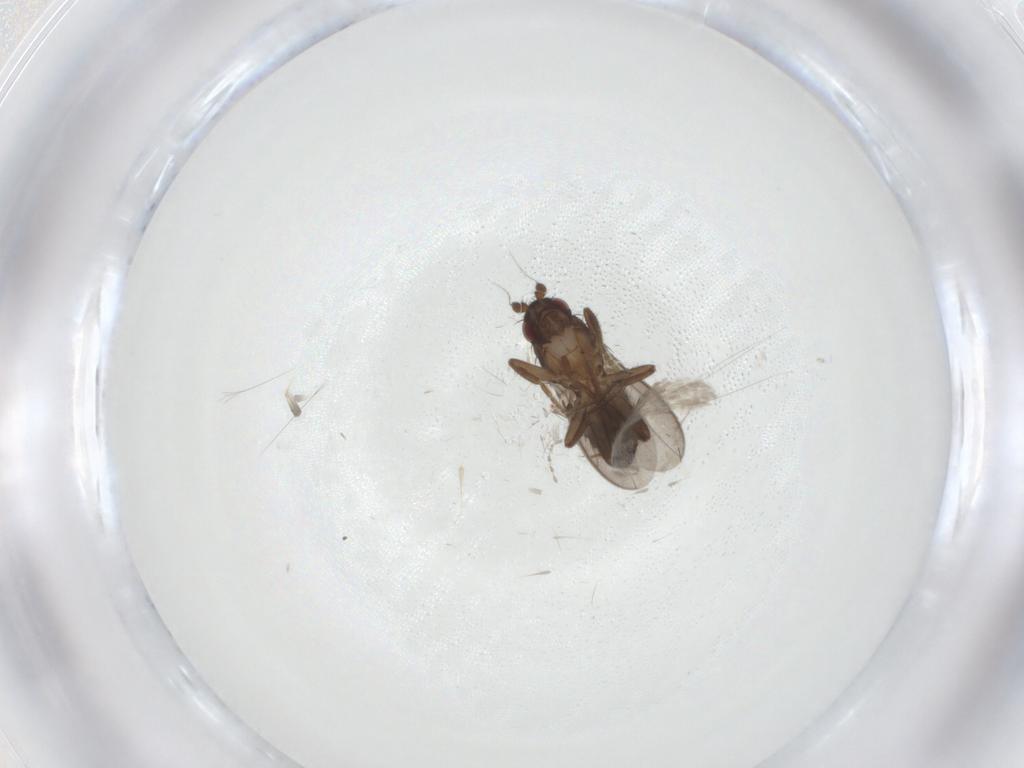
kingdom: Animalia
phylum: Arthropoda
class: Insecta
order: Diptera
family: Cecidomyiidae
